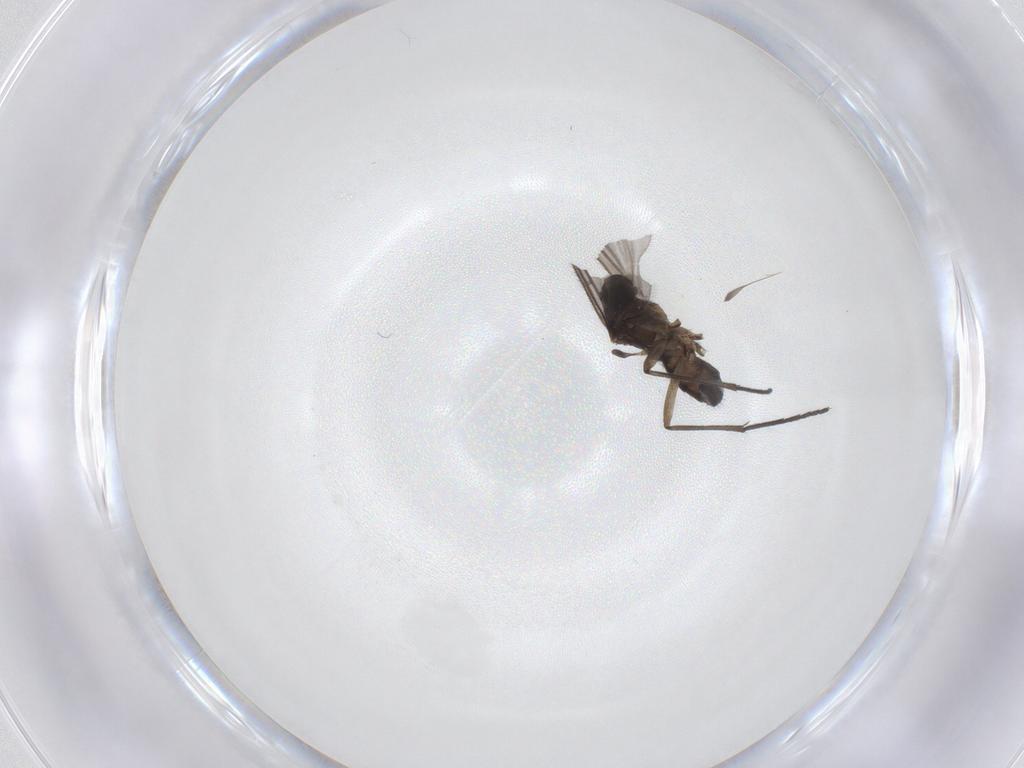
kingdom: Animalia
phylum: Arthropoda
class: Insecta
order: Diptera
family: Sciaridae
